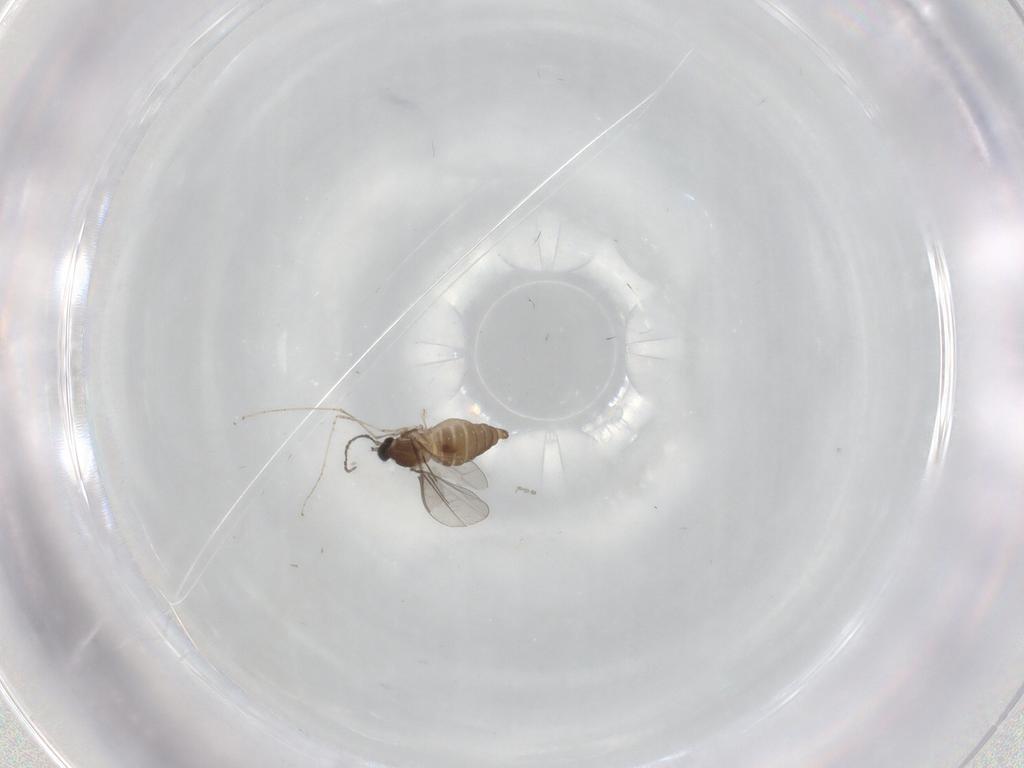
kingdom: Animalia
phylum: Arthropoda
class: Insecta
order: Diptera
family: Cecidomyiidae
